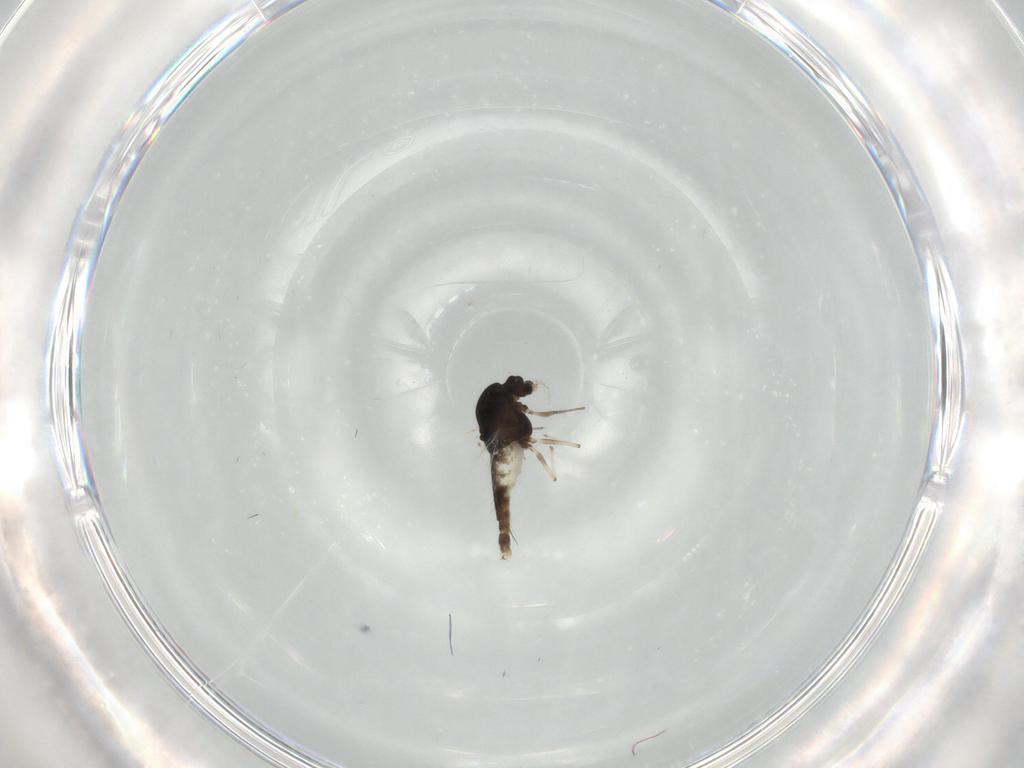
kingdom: Animalia
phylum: Arthropoda
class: Insecta
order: Diptera
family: Chironomidae
